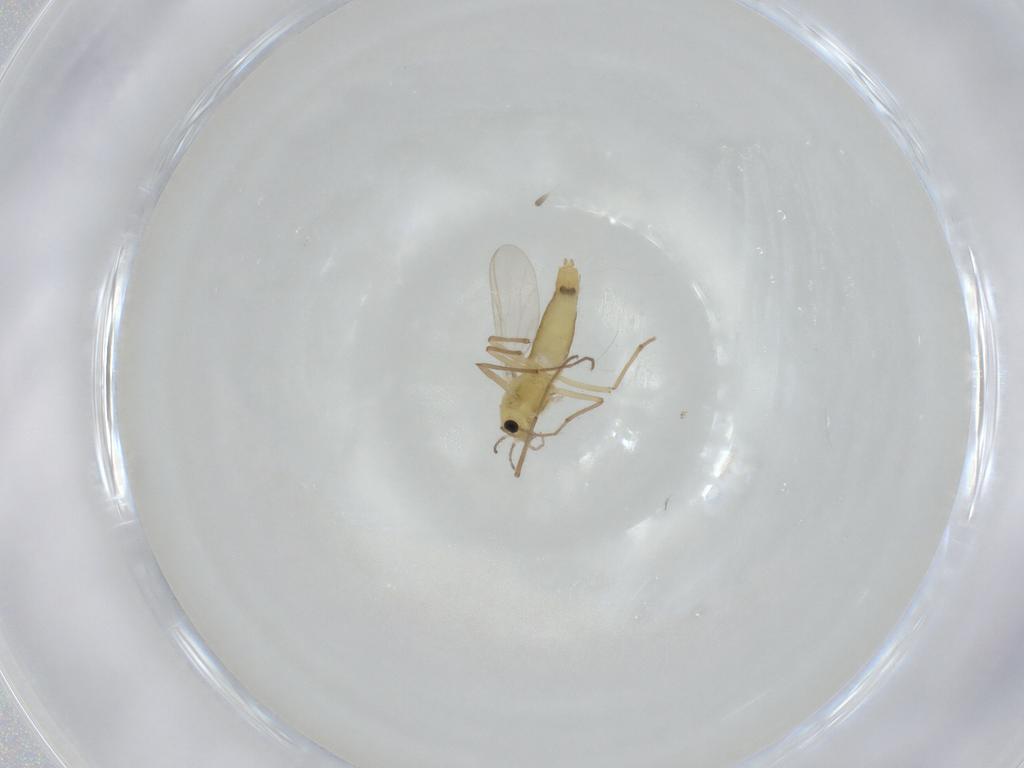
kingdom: Animalia
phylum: Arthropoda
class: Insecta
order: Diptera
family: Chironomidae
